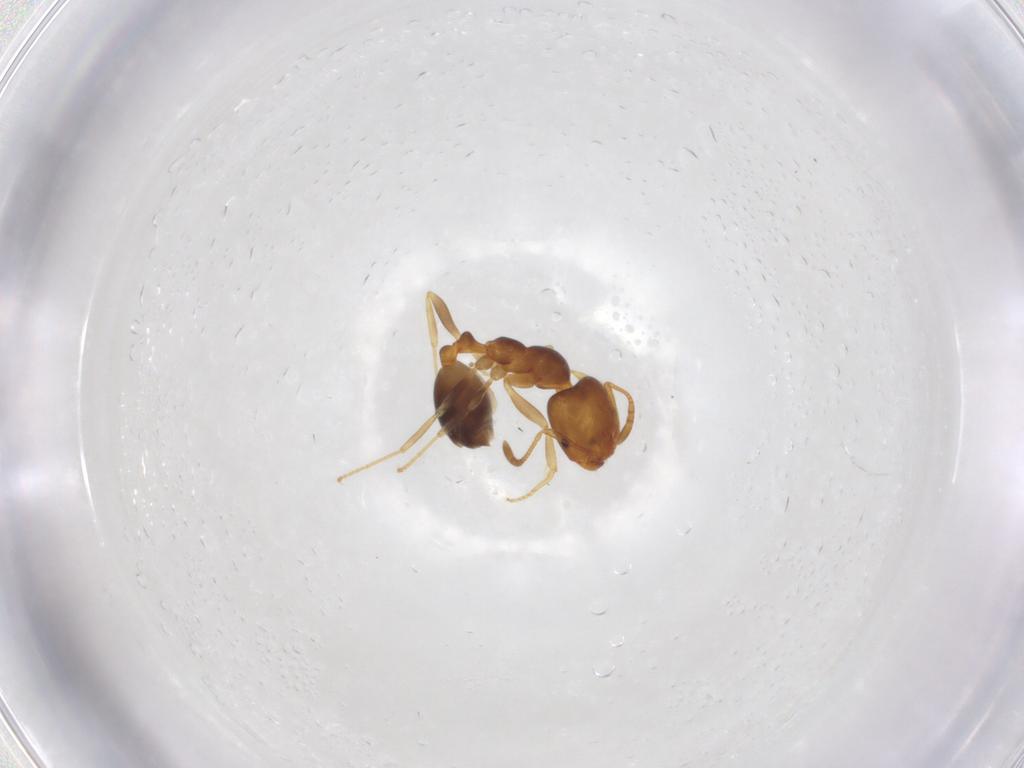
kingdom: Animalia
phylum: Arthropoda
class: Insecta
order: Hymenoptera
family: Formicidae
